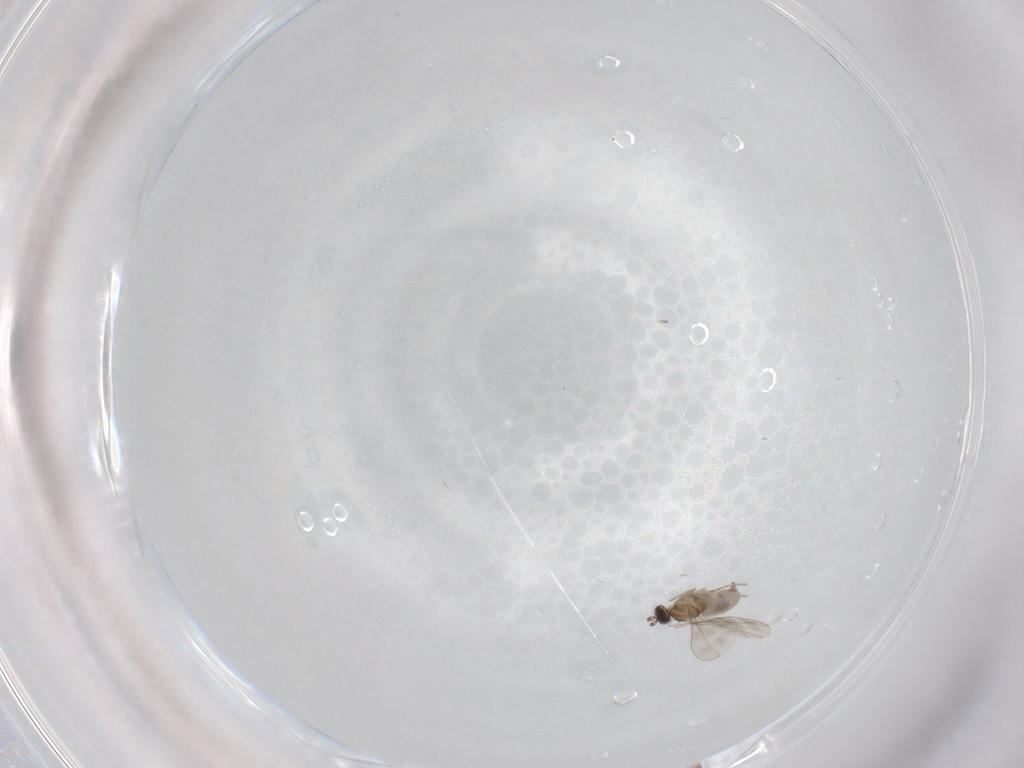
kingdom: Animalia
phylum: Arthropoda
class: Insecta
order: Diptera
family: Cecidomyiidae
